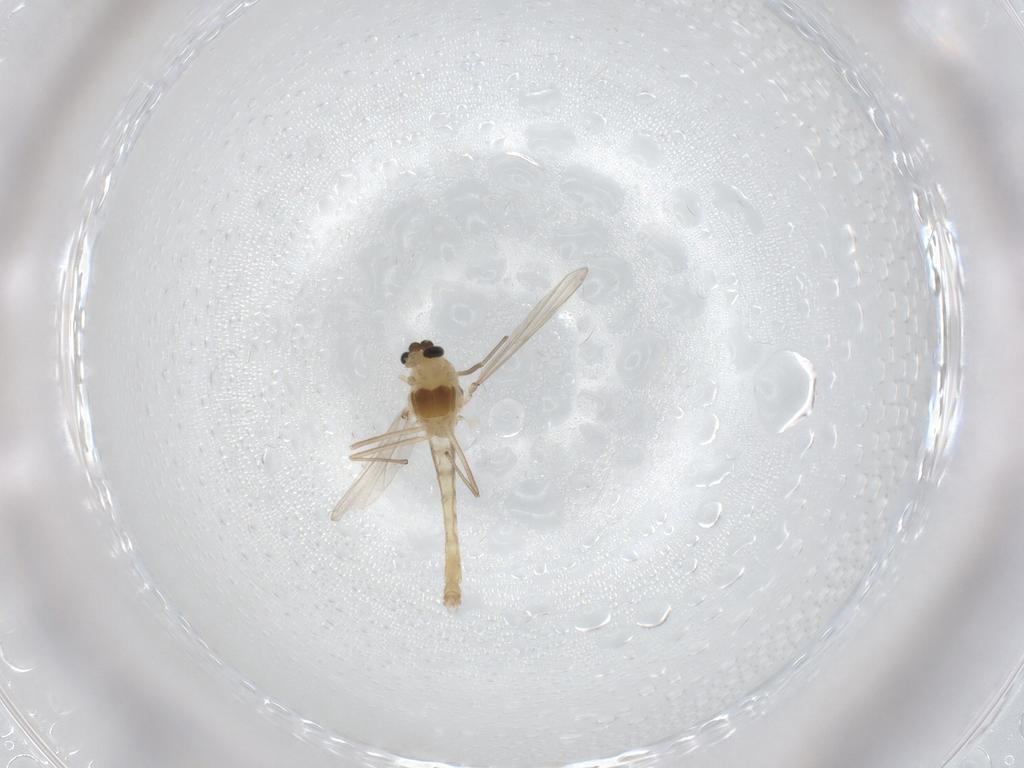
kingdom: Animalia
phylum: Arthropoda
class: Insecta
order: Diptera
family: Chironomidae
